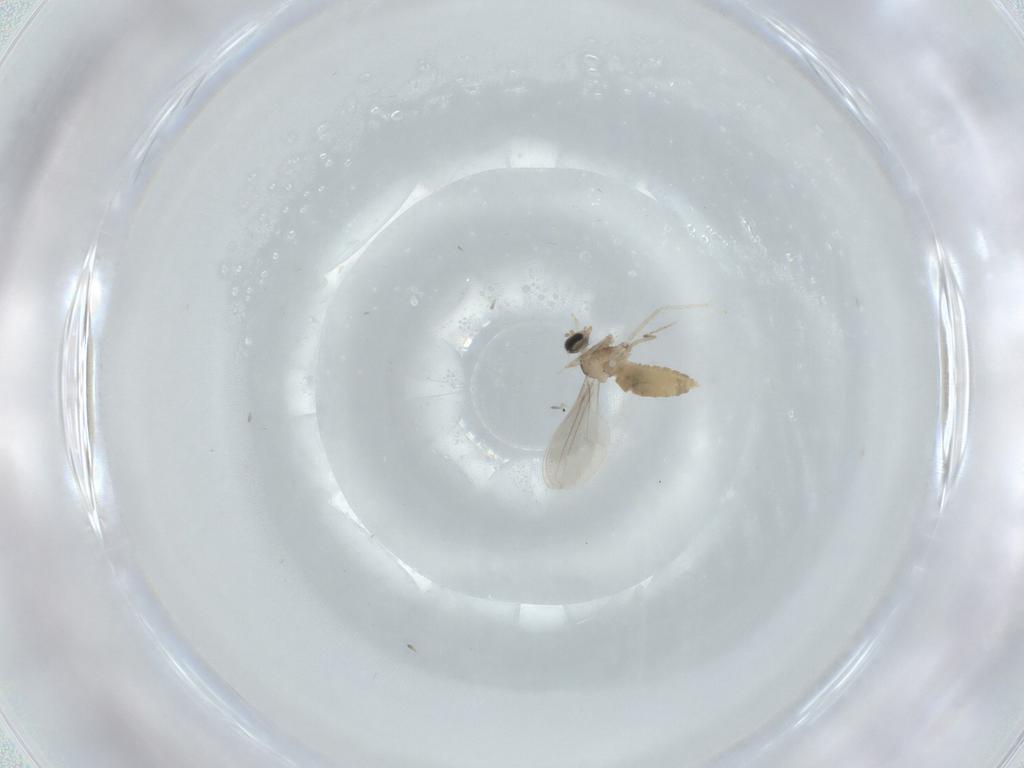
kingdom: Animalia
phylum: Arthropoda
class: Insecta
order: Diptera
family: Cecidomyiidae
